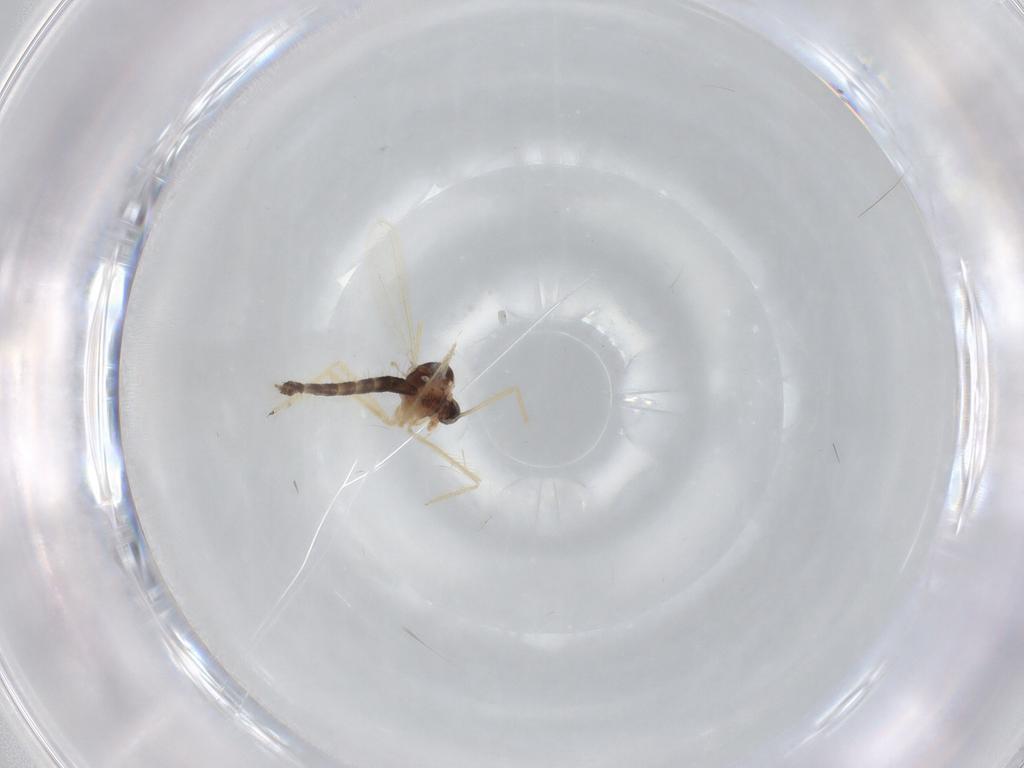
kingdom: Animalia
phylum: Arthropoda
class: Insecta
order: Diptera
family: Chironomidae
